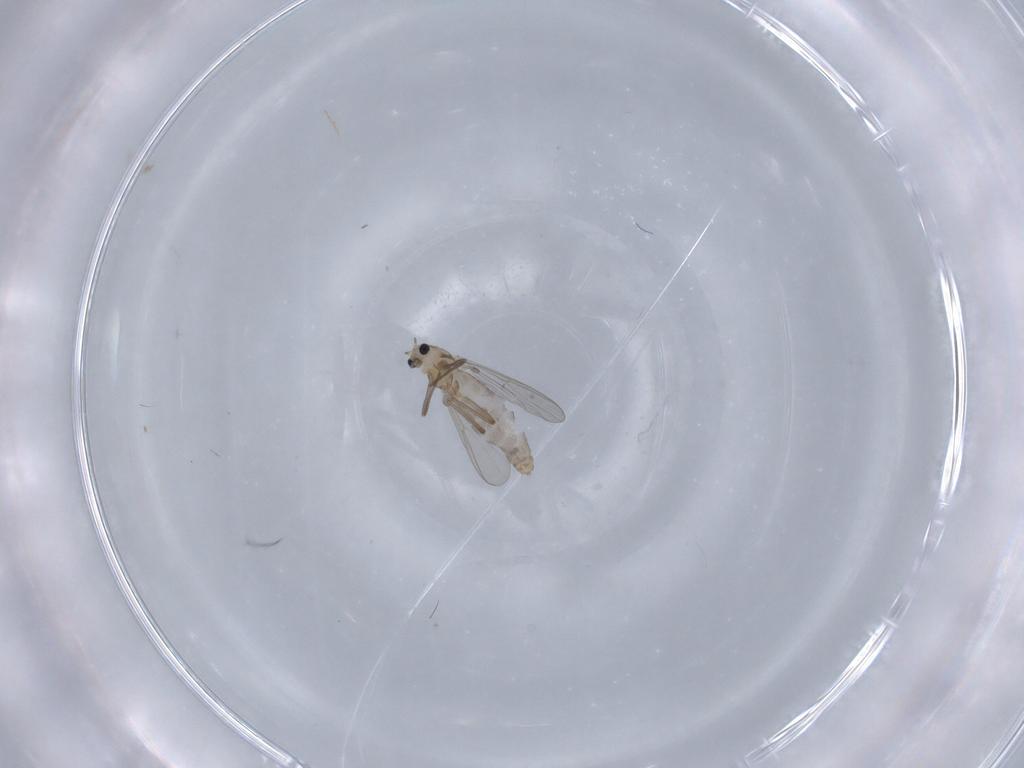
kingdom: Animalia
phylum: Arthropoda
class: Insecta
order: Diptera
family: Chironomidae
